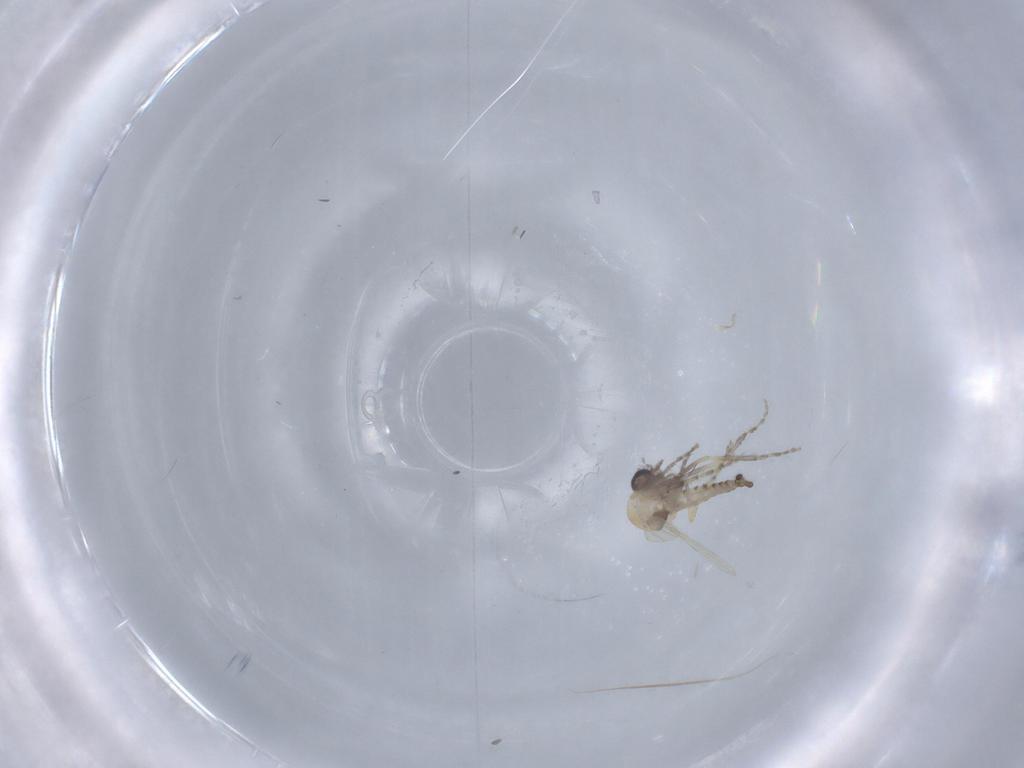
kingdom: Animalia
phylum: Arthropoda
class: Insecta
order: Diptera
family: Ceratopogonidae
